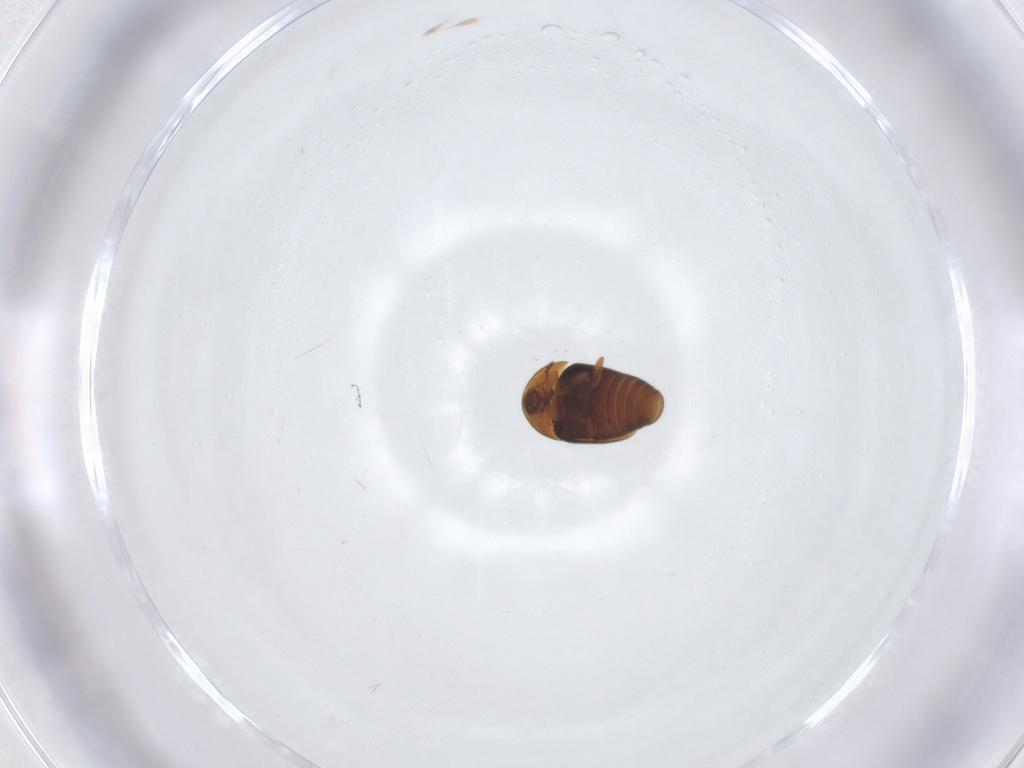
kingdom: Animalia
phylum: Arthropoda
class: Insecta
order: Coleoptera
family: Corylophidae
